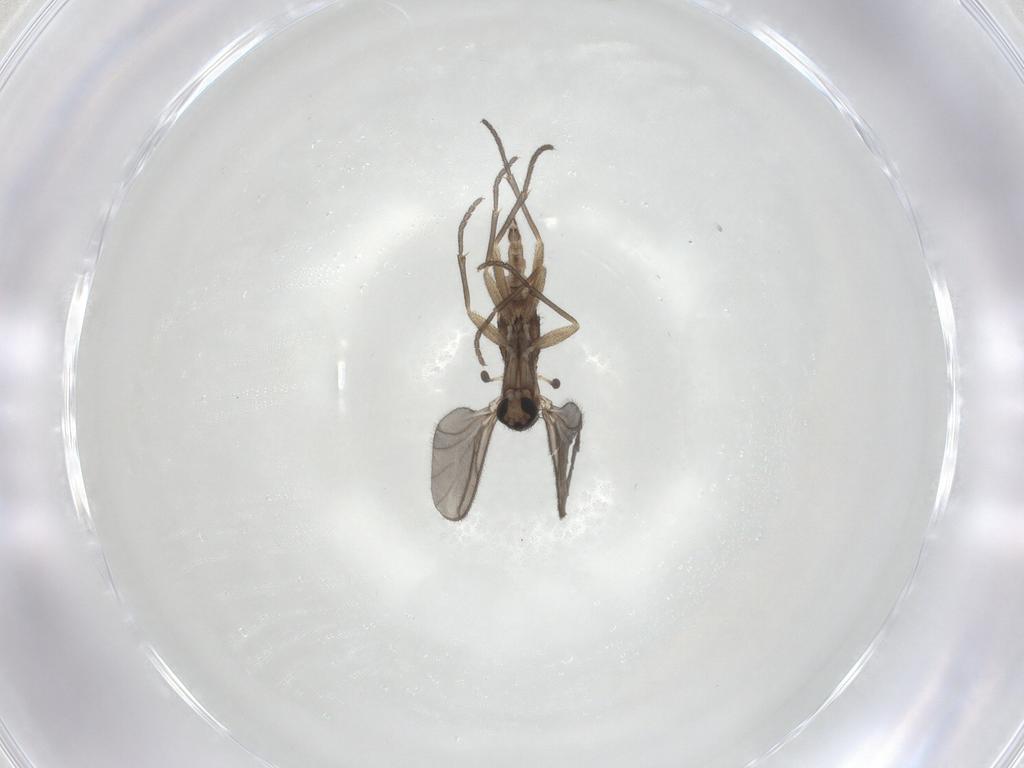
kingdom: Animalia
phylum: Arthropoda
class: Insecta
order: Diptera
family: Sciaridae
